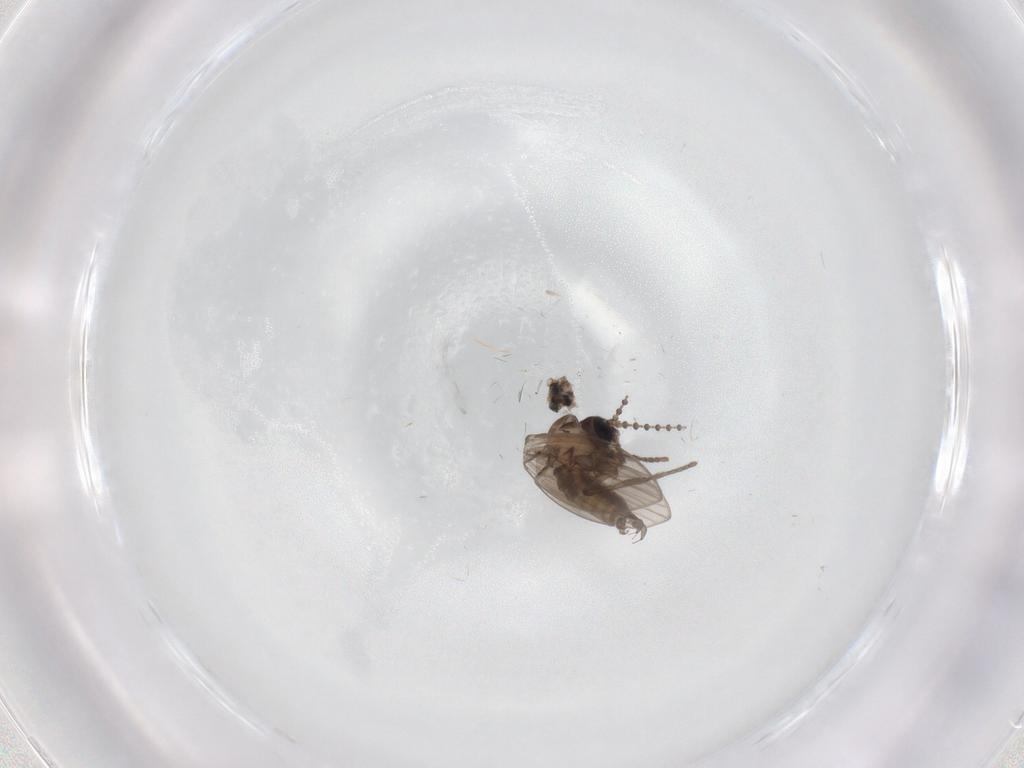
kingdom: Animalia
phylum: Arthropoda
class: Insecta
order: Diptera
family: Psychodidae
